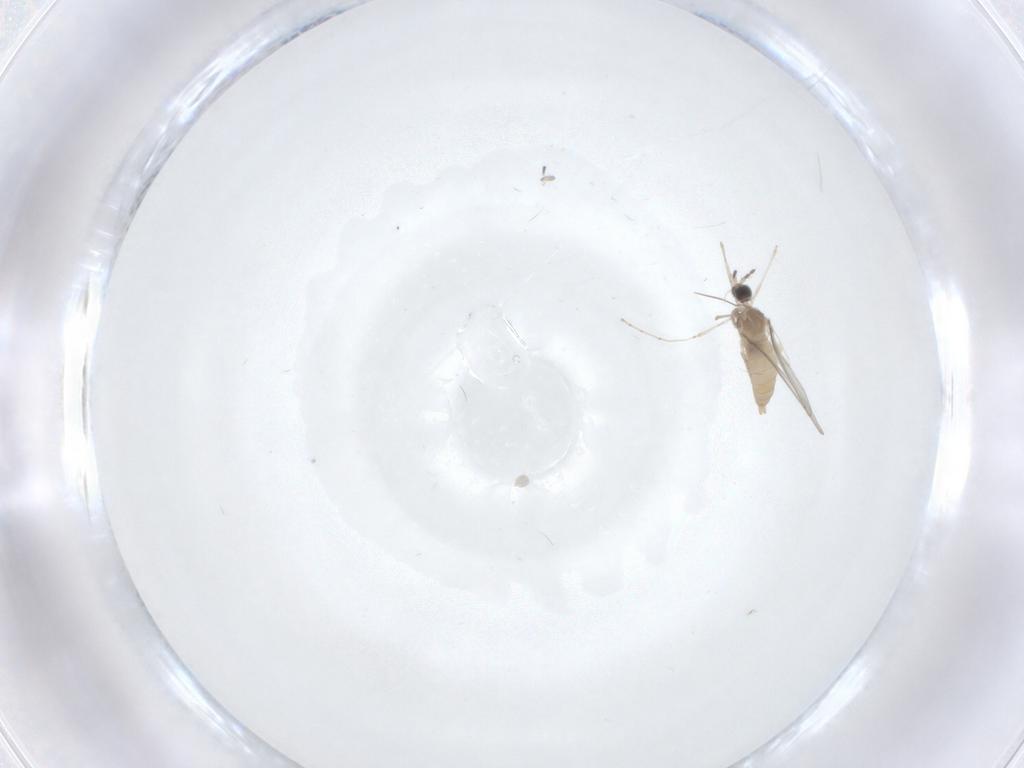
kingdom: Animalia
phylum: Arthropoda
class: Insecta
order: Diptera
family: Cecidomyiidae
